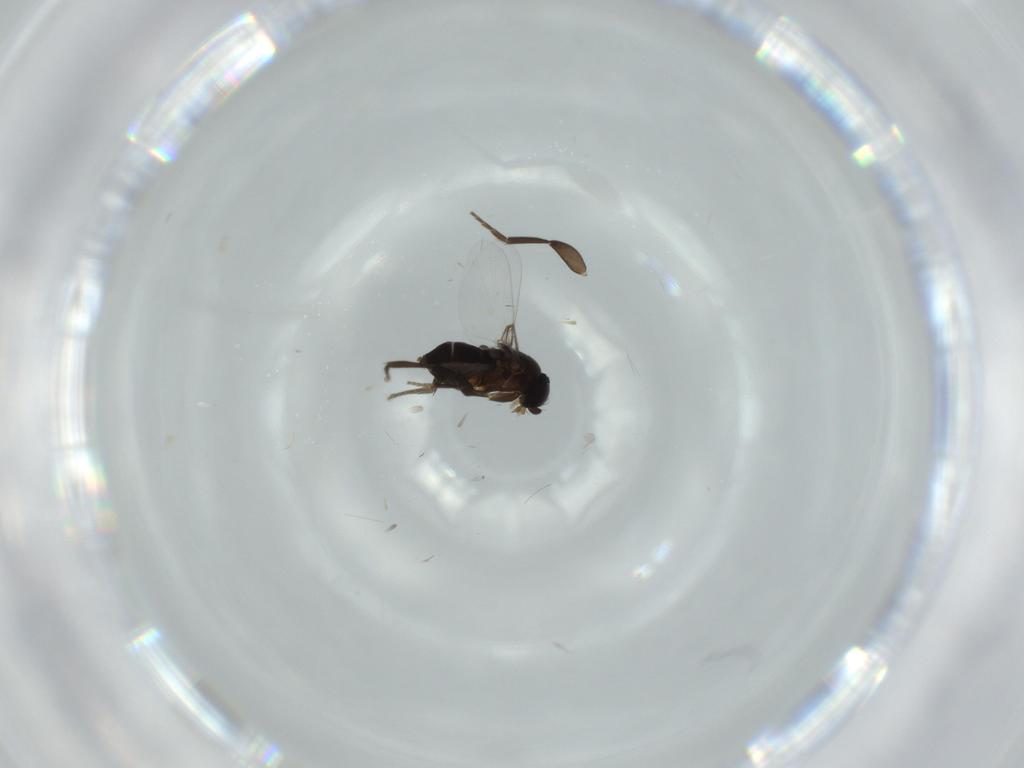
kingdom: Animalia
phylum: Arthropoda
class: Insecta
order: Diptera
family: Phoridae
